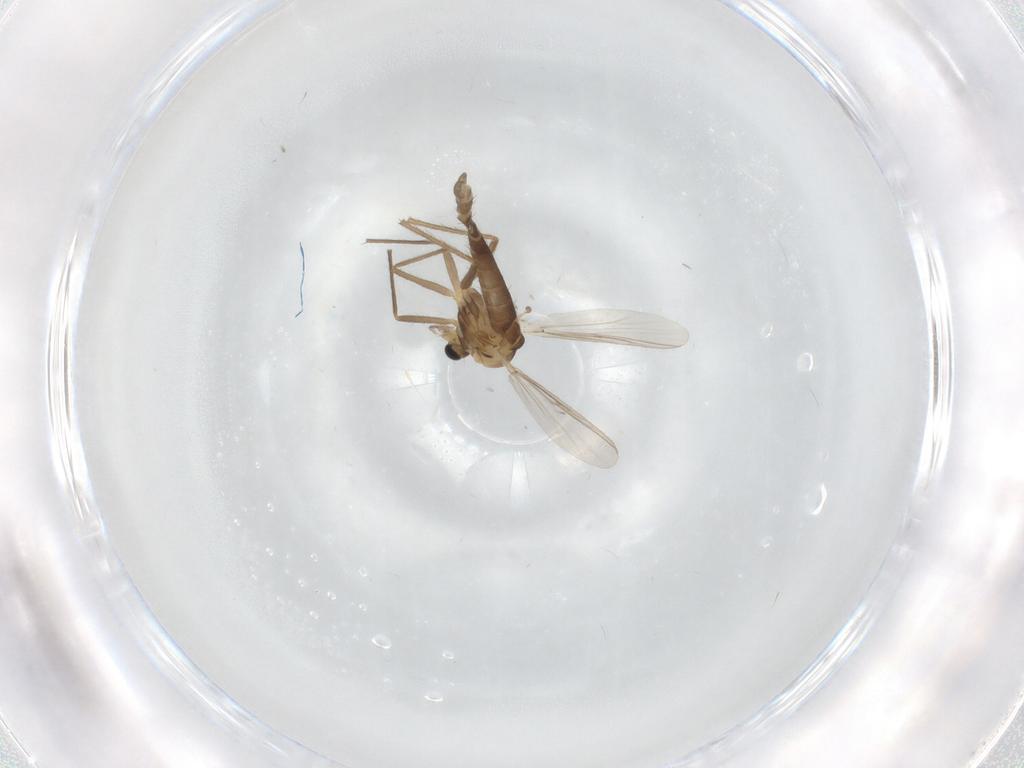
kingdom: Animalia
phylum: Arthropoda
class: Insecta
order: Diptera
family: Chironomidae
